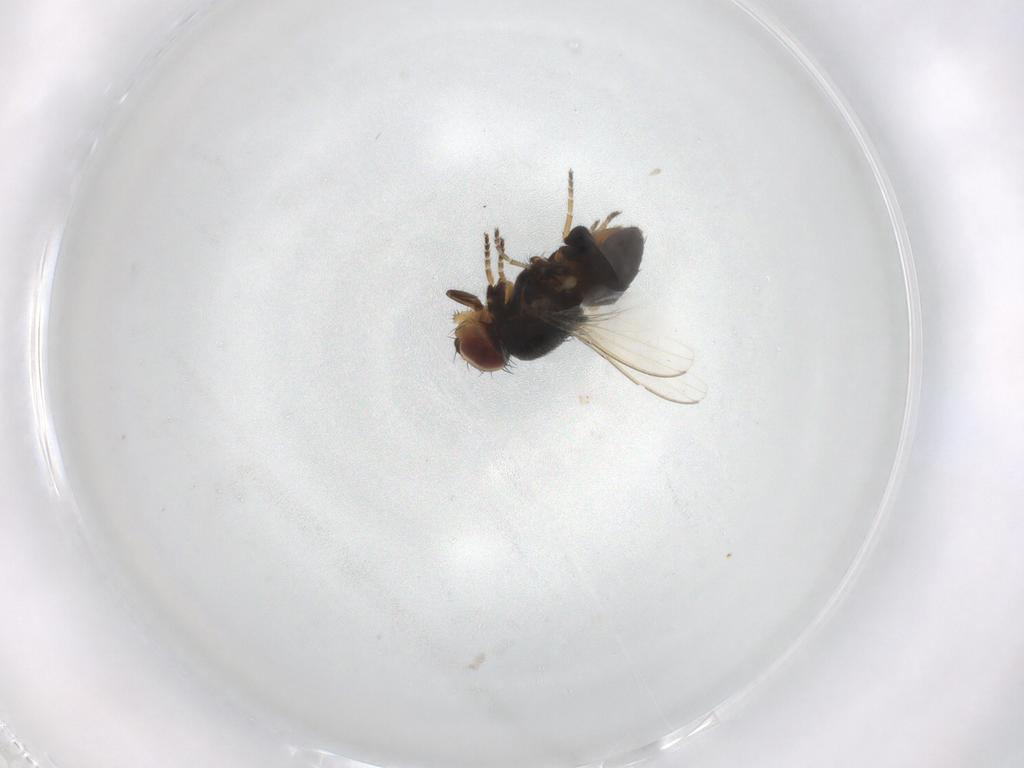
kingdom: Animalia
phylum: Arthropoda
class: Insecta
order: Diptera
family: Milichiidae
